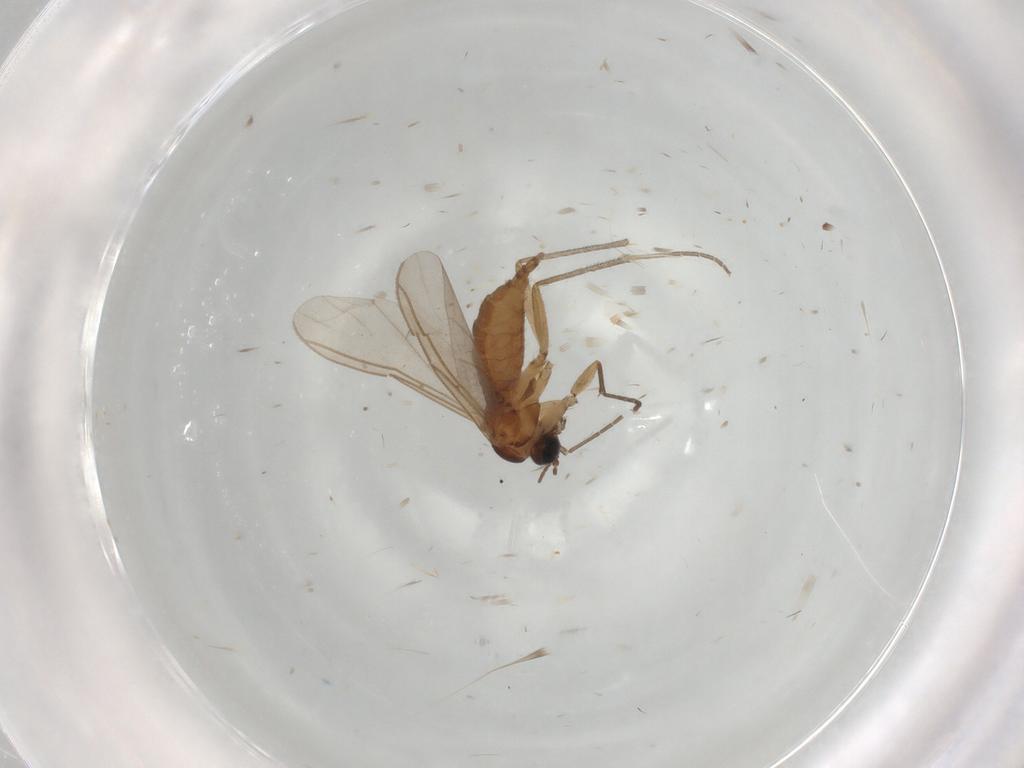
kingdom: Animalia
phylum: Arthropoda
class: Insecta
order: Diptera
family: Sciaridae
